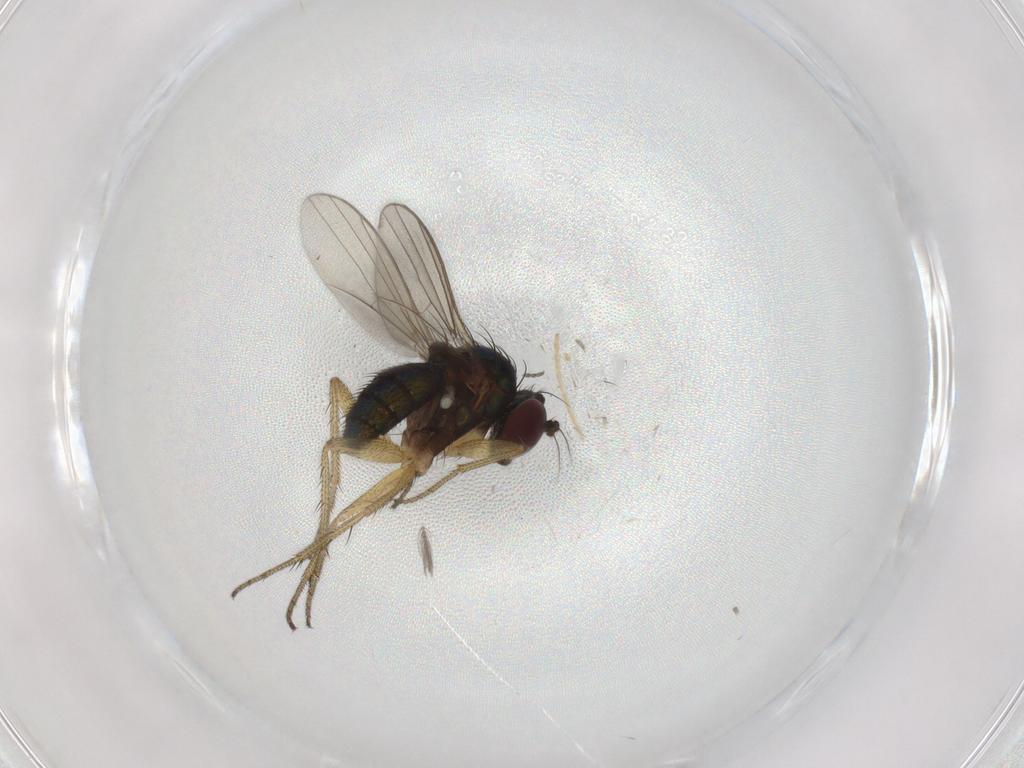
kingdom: Animalia
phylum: Arthropoda
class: Insecta
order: Diptera
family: Ceratopogonidae
